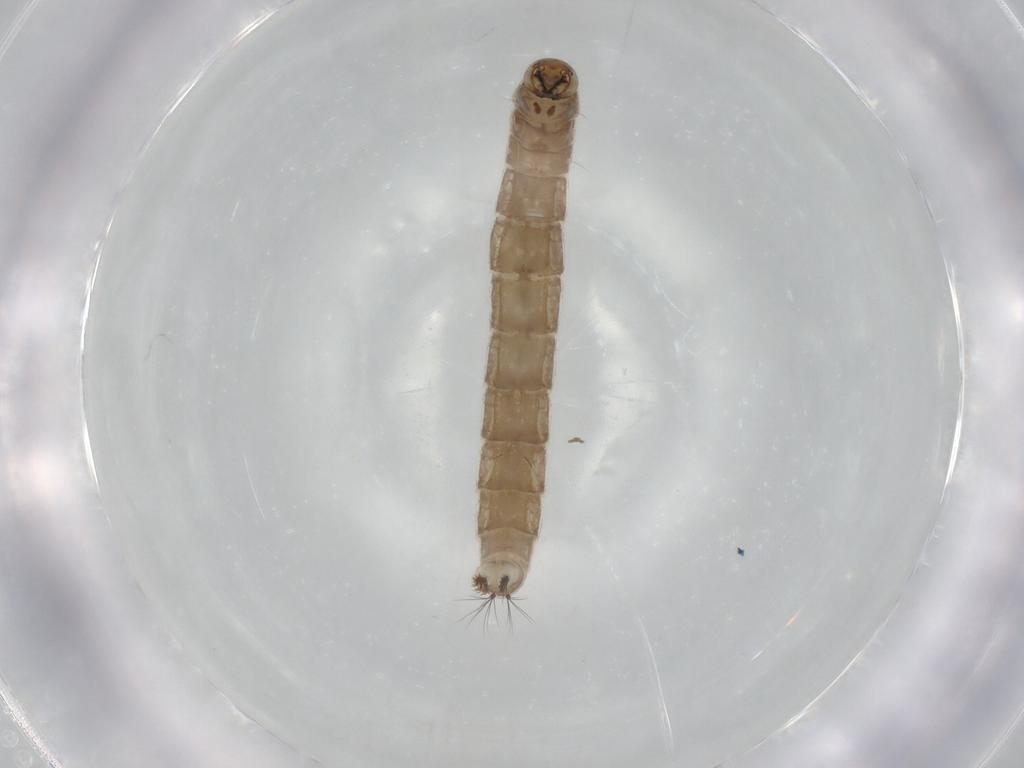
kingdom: Animalia
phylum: Arthropoda
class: Insecta
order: Diptera
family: Chironomidae
